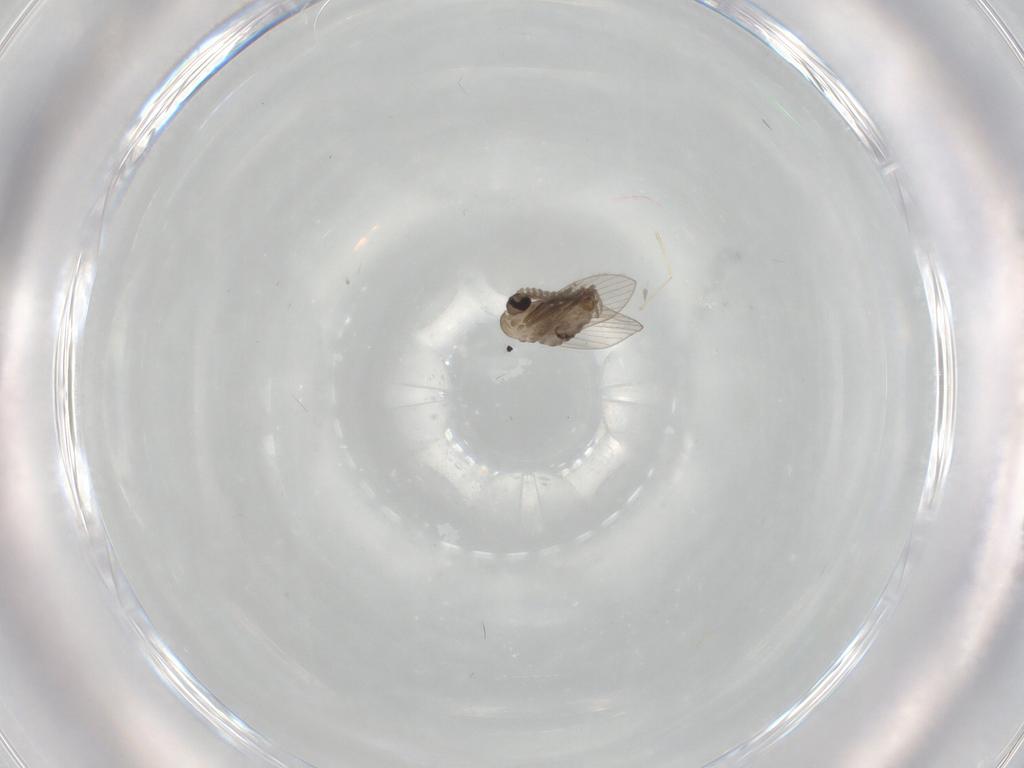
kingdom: Animalia
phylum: Arthropoda
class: Insecta
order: Diptera
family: Psychodidae
